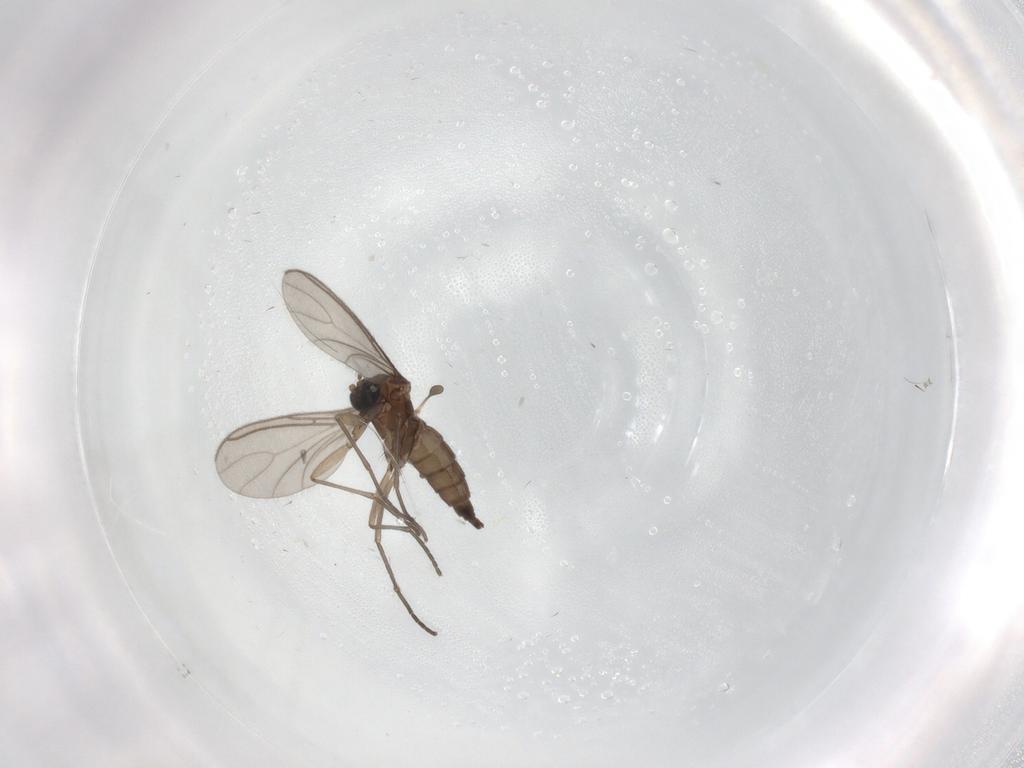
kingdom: Animalia
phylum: Arthropoda
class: Insecta
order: Diptera
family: Sciaridae
